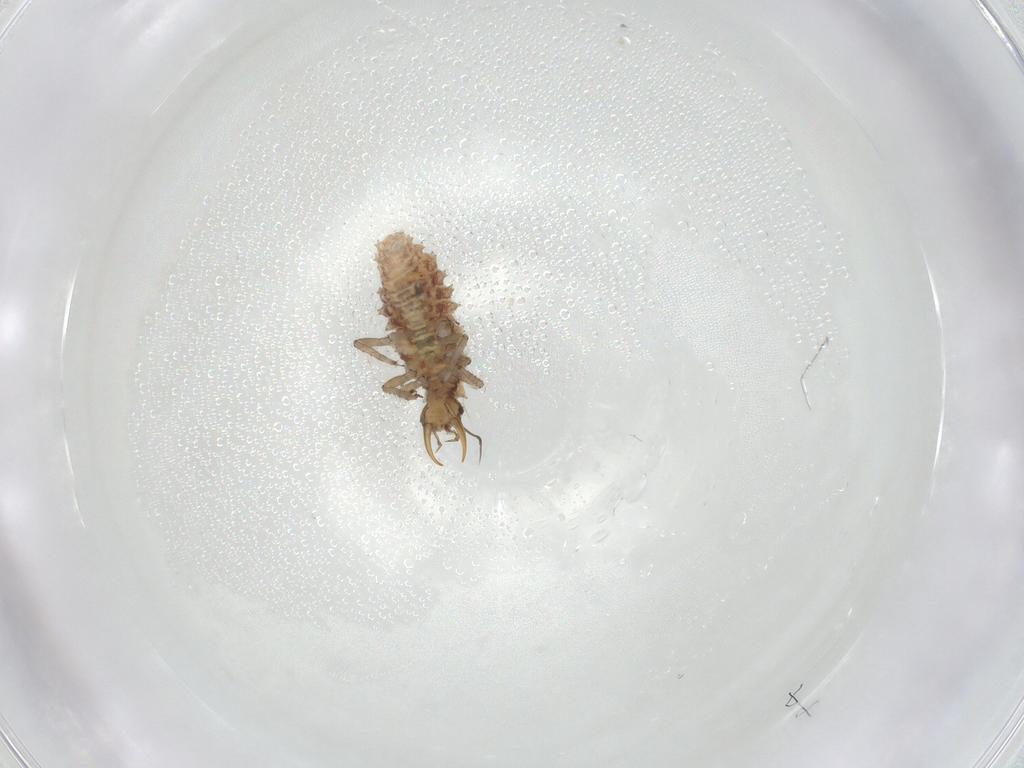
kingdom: Animalia
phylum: Arthropoda
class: Insecta
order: Neuroptera
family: Chrysopidae
